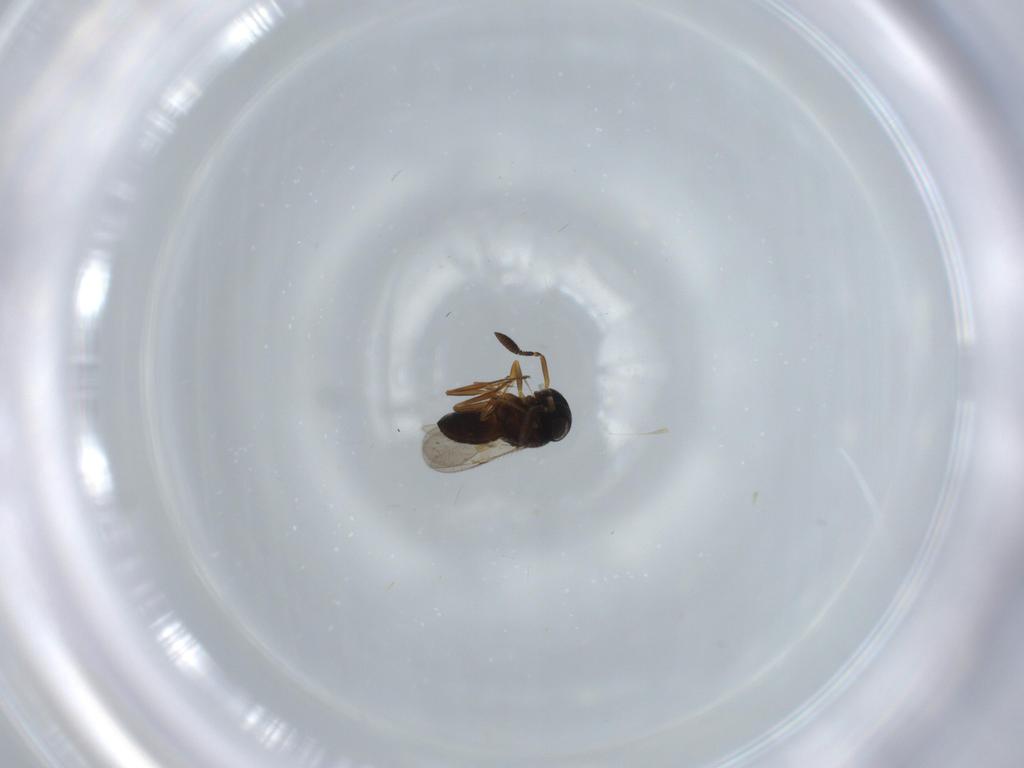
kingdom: Animalia
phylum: Arthropoda
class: Insecta
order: Hymenoptera
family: Scelionidae
